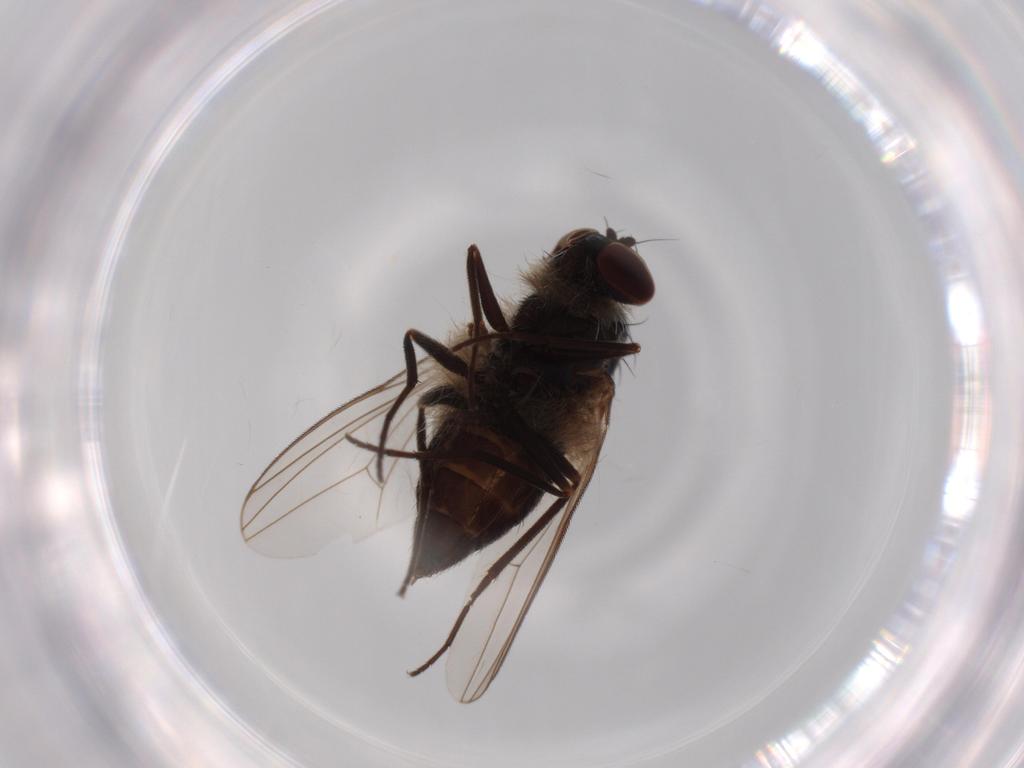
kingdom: Animalia
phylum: Arthropoda
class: Insecta
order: Diptera
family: Dolichopodidae
